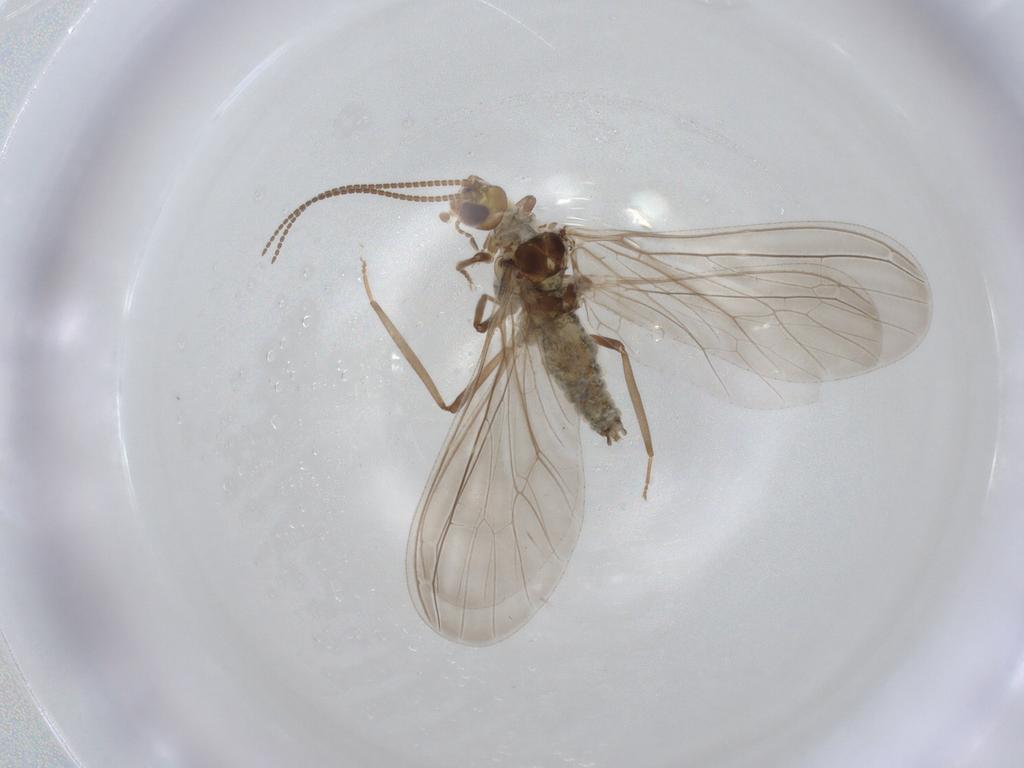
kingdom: Animalia
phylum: Arthropoda
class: Insecta
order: Neuroptera
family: Coniopterygidae
